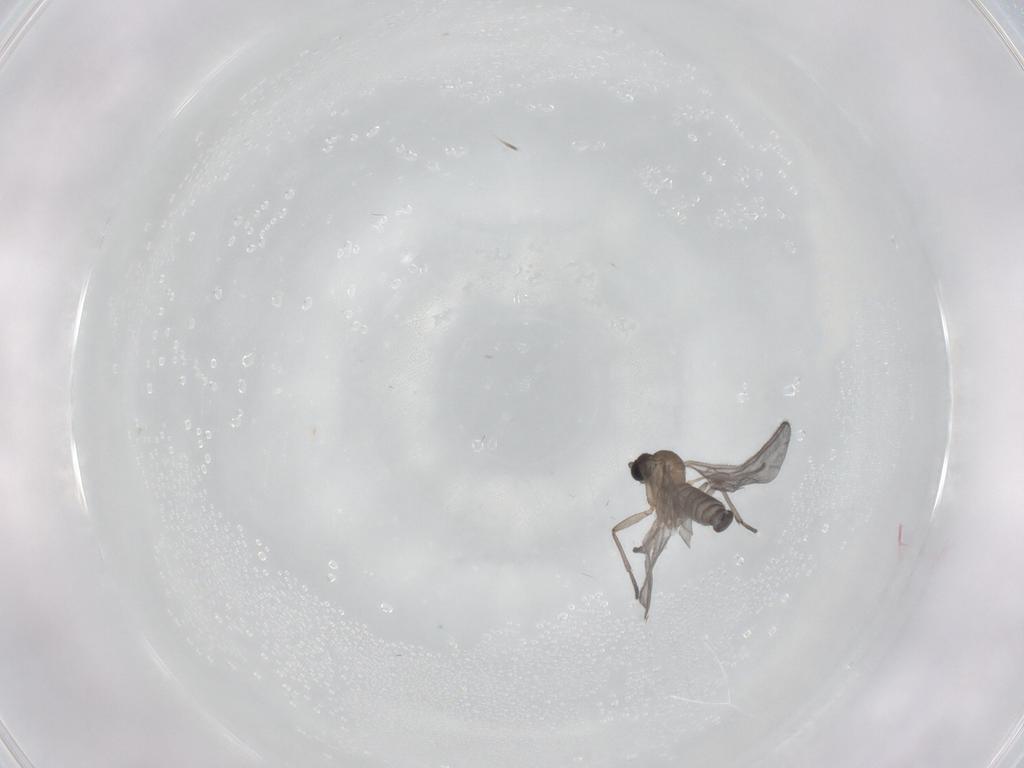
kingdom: Animalia
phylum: Arthropoda
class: Insecta
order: Diptera
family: Sciaridae
